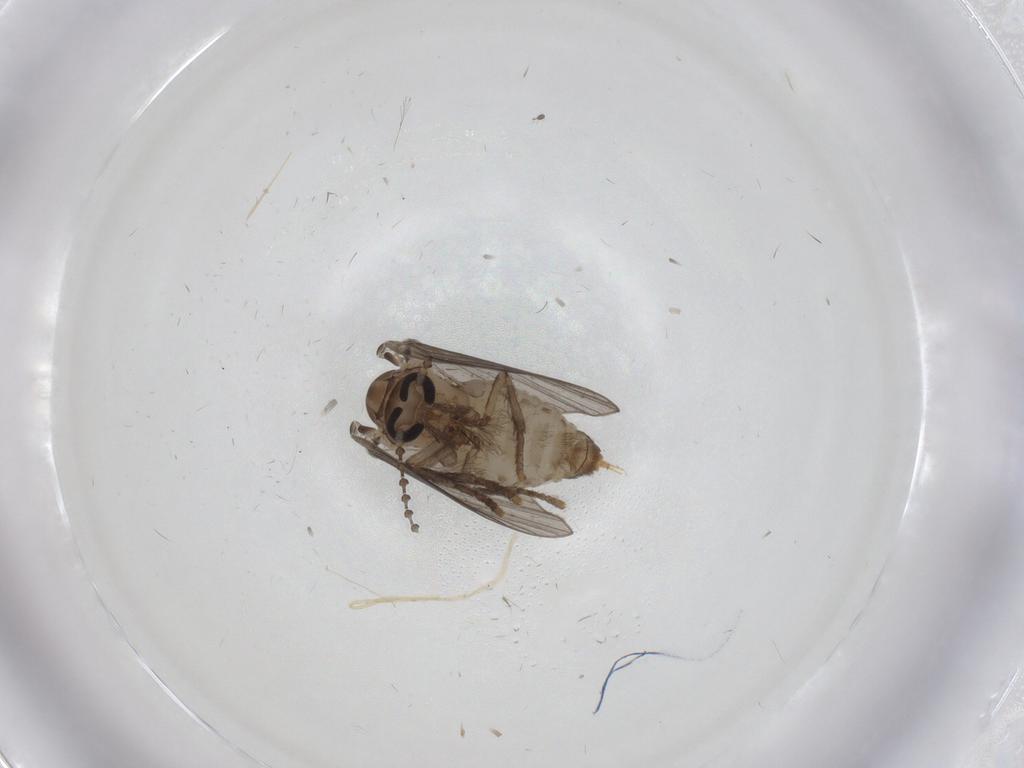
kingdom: Animalia
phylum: Arthropoda
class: Insecta
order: Diptera
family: Psychodidae
